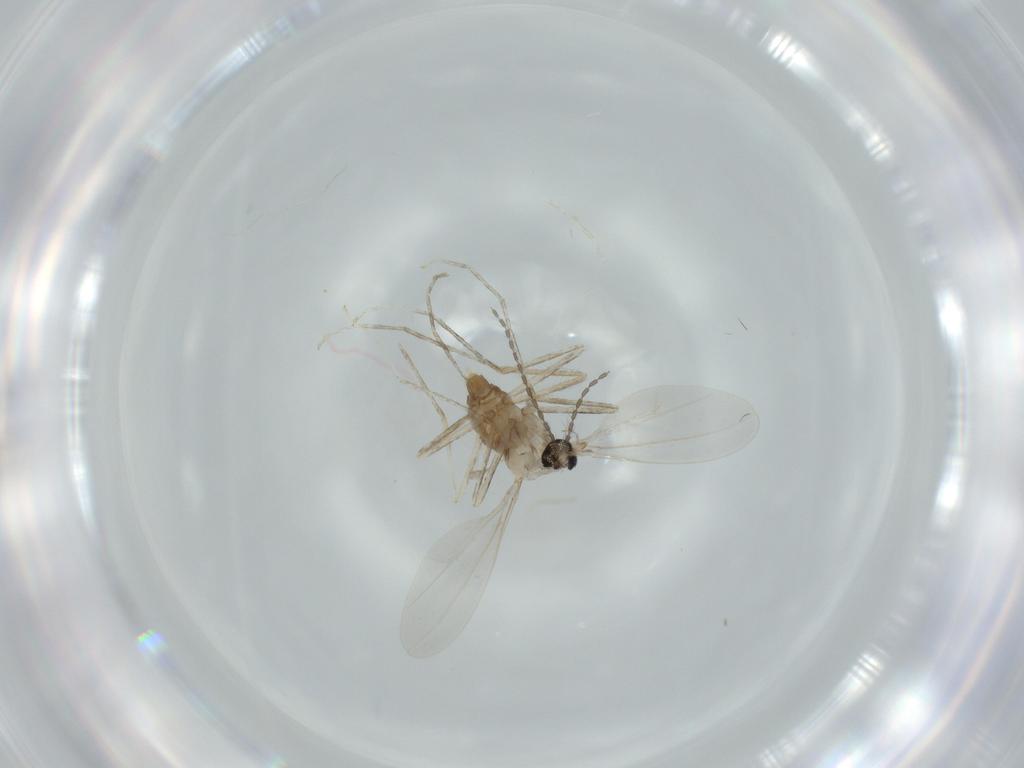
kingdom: Animalia
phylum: Arthropoda
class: Insecta
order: Diptera
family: Cecidomyiidae
